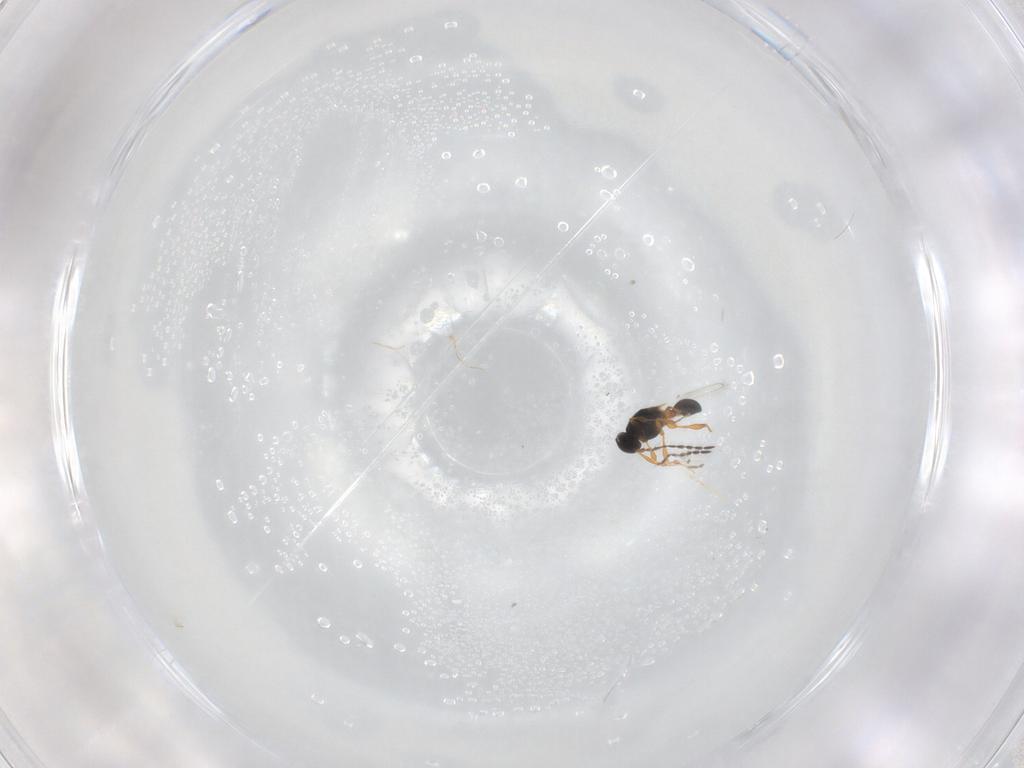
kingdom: Animalia
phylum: Arthropoda
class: Insecta
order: Hymenoptera
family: Platygastridae
